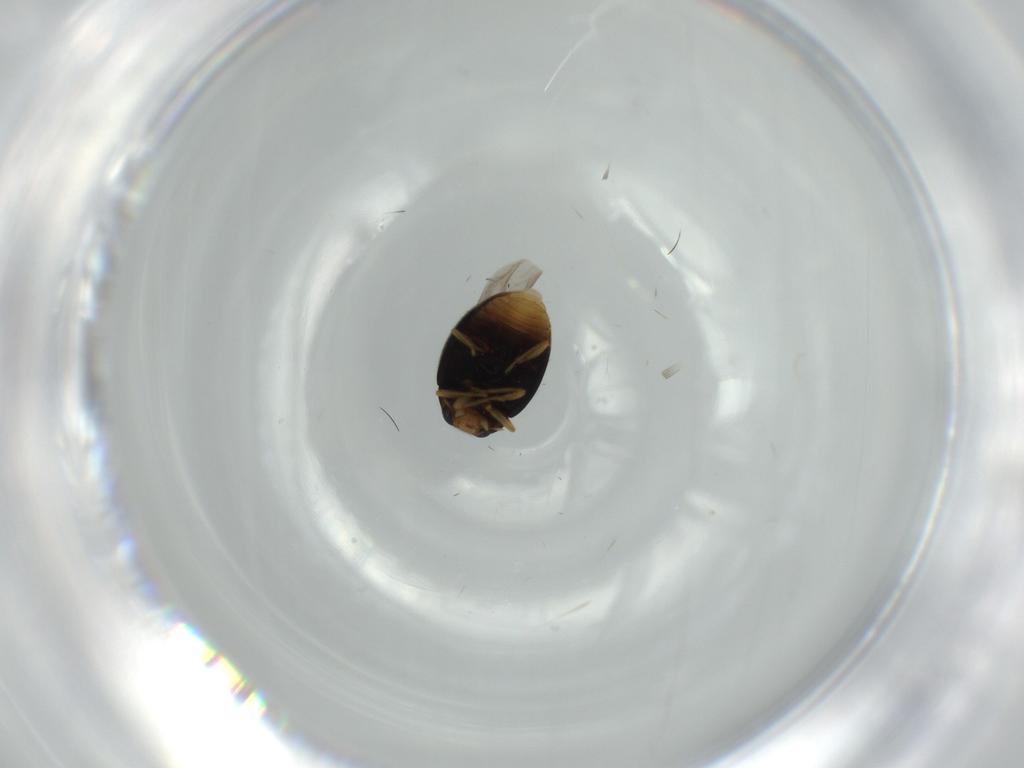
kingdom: Animalia
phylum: Arthropoda
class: Insecta
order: Coleoptera
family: Coccinellidae
